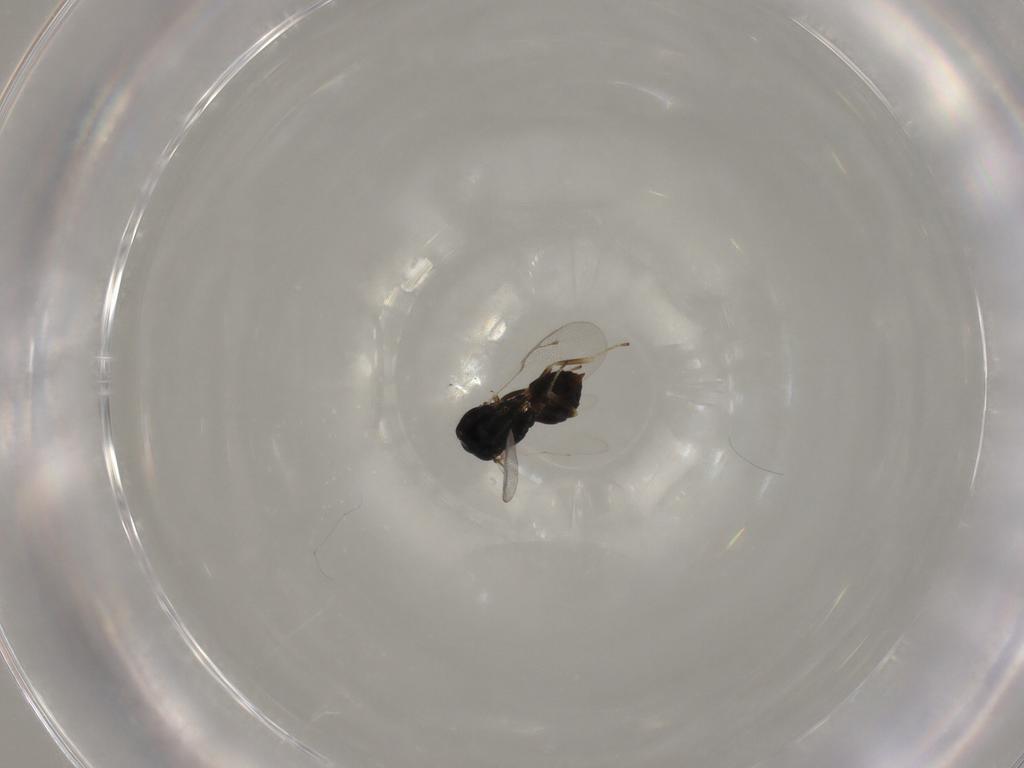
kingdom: Animalia
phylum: Arthropoda
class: Insecta
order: Hymenoptera
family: Pteromalidae
